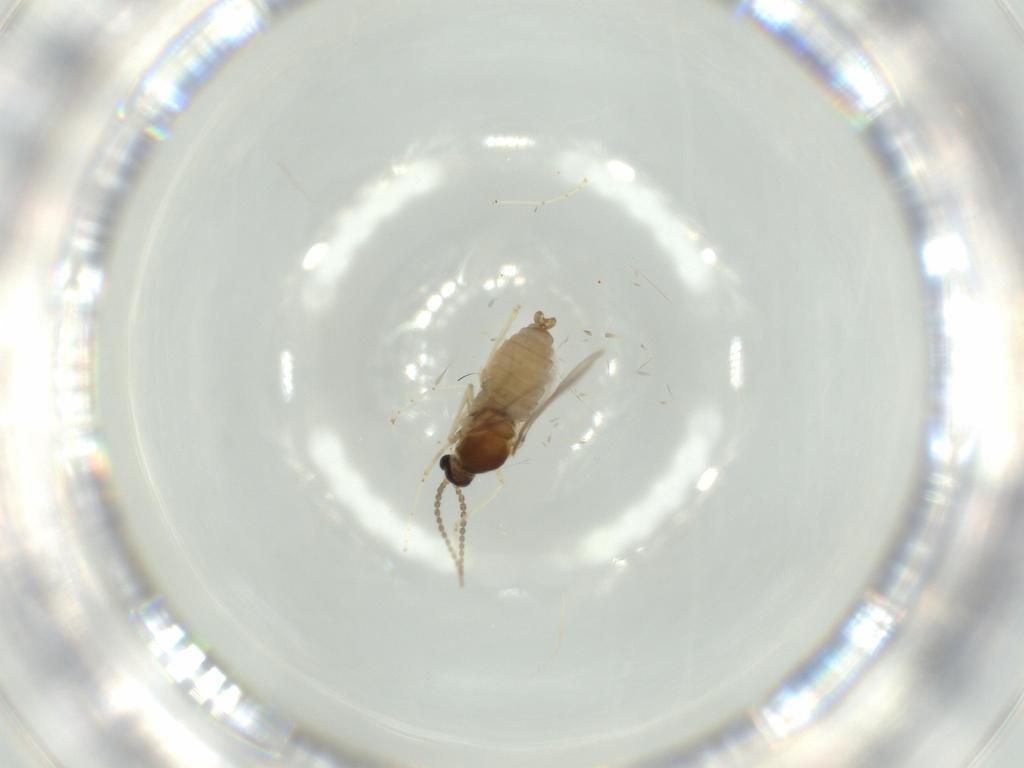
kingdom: Animalia
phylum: Arthropoda
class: Insecta
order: Diptera
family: Cecidomyiidae
